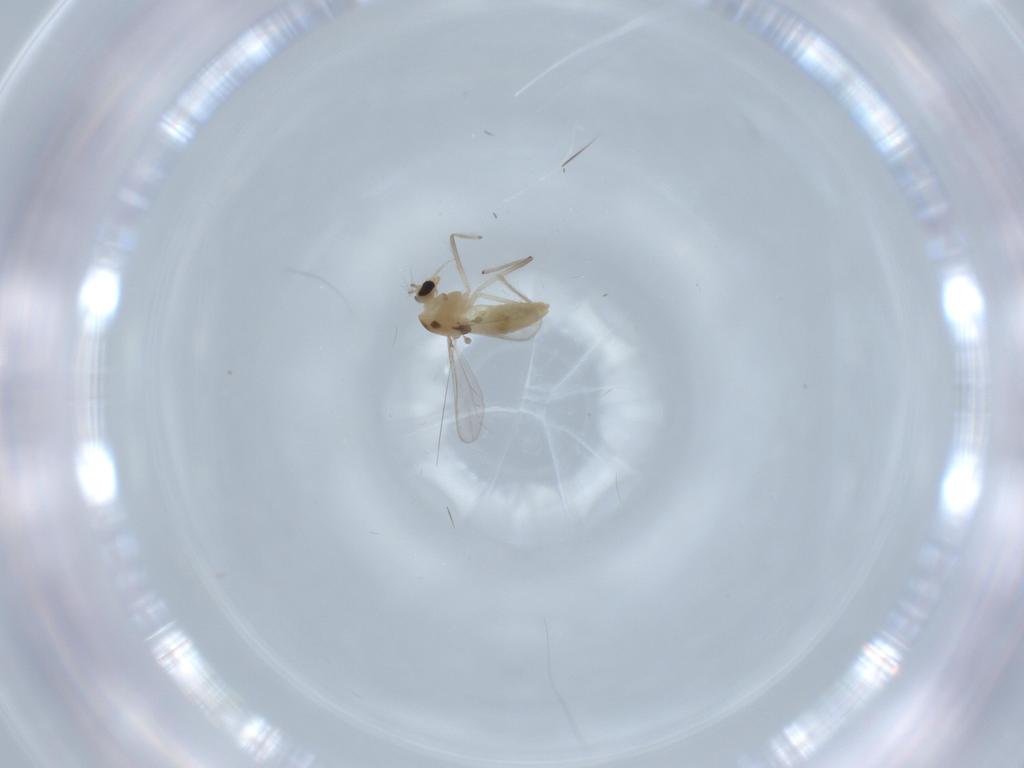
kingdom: Animalia
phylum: Arthropoda
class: Insecta
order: Diptera
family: Chironomidae
